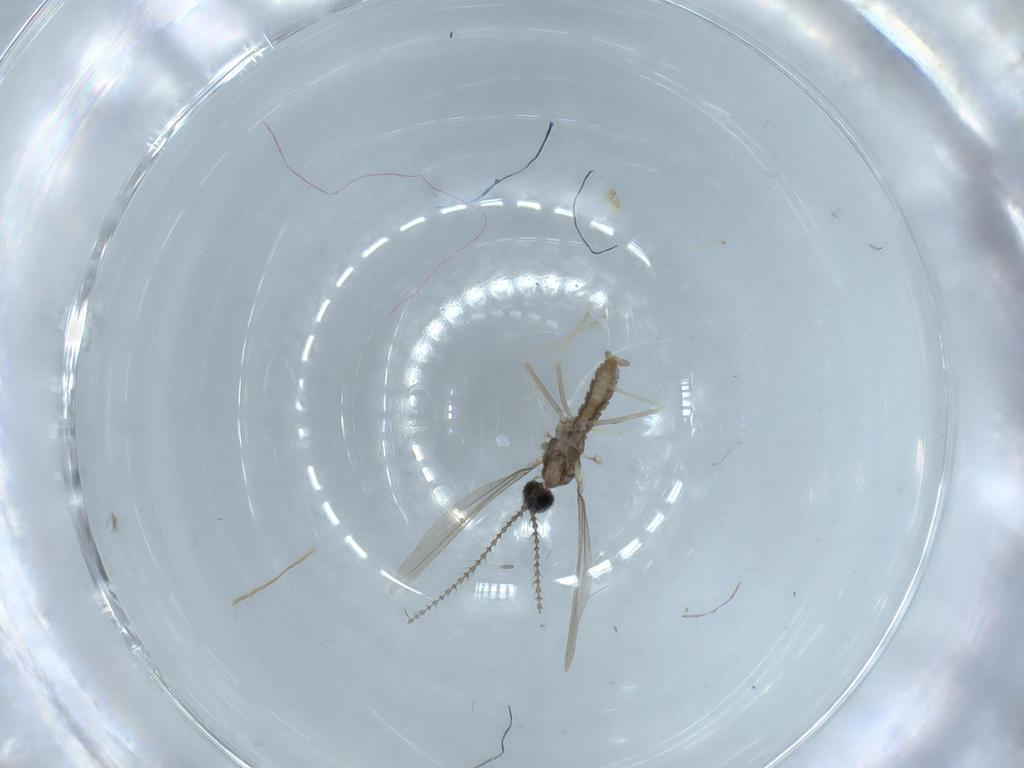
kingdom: Animalia
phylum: Arthropoda
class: Insecta
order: Diptera
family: Cecidomyiidae
